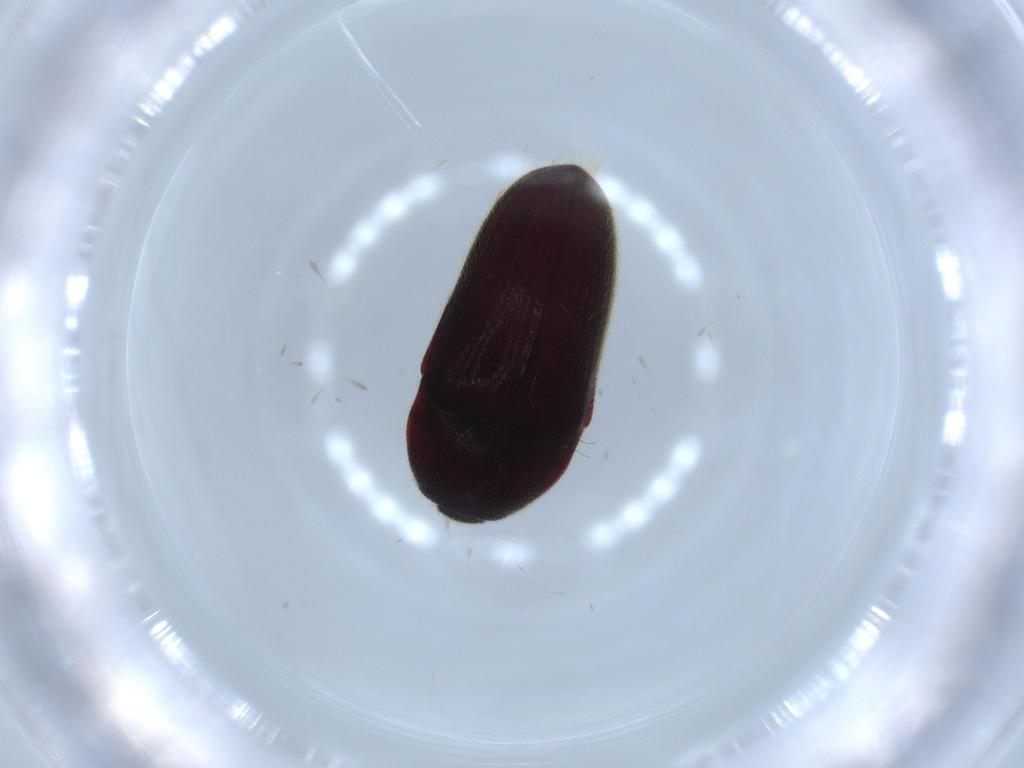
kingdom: Animalia
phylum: Arthropoda
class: Insecta
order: Coleoptera
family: Throscidae
